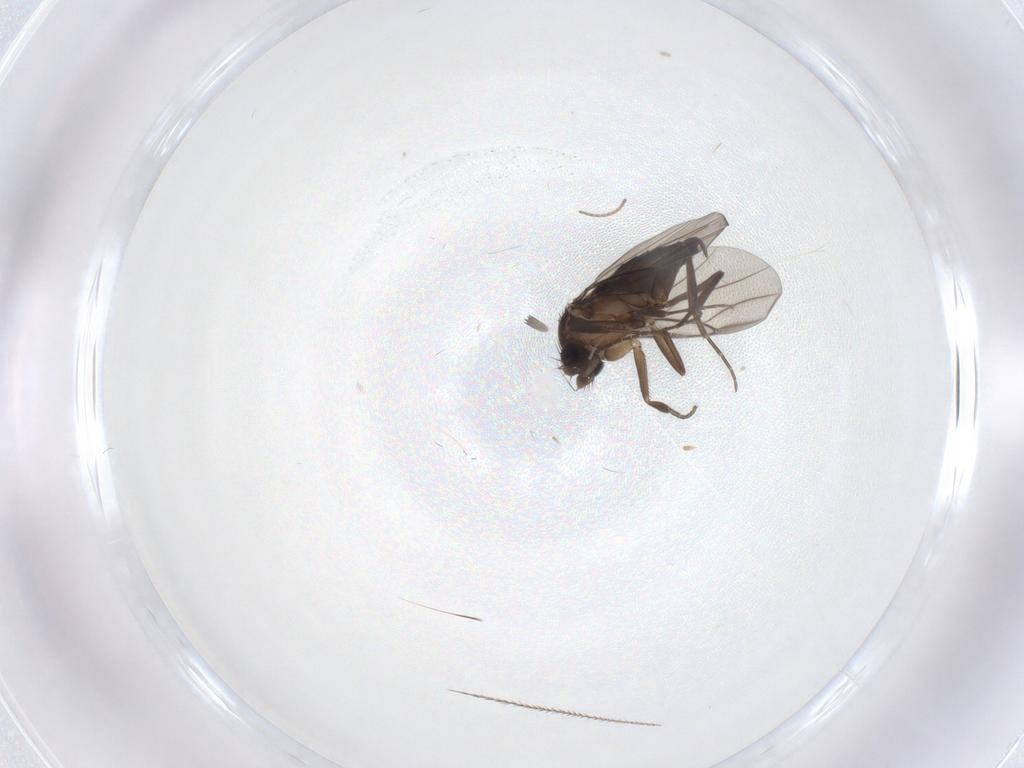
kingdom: Animalia
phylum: Arthropoda
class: Insecta
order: Diptera
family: Phoridae
